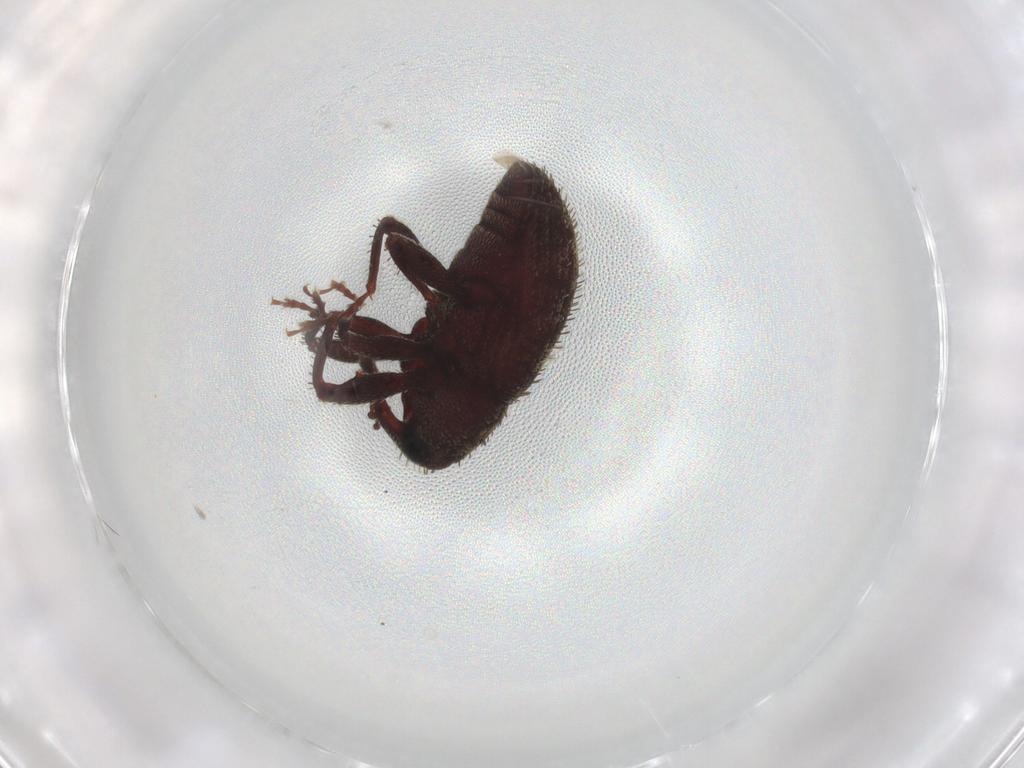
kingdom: Animalia
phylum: Arthropoda
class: Insecta
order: Coleoptera
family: Curculionidae
